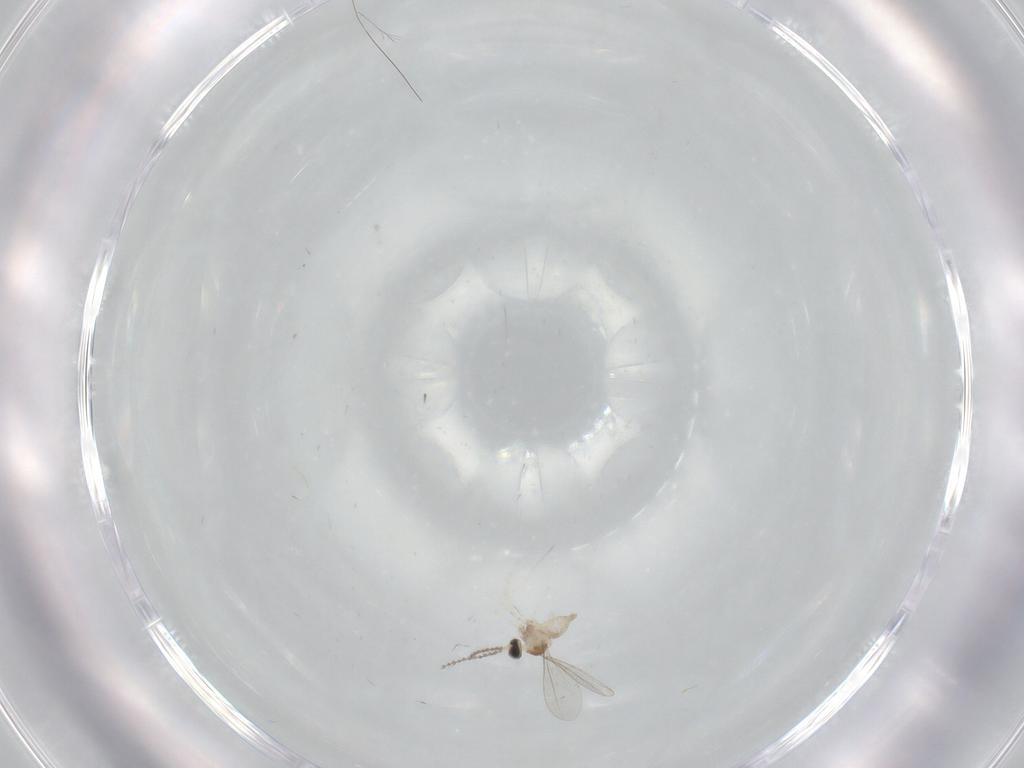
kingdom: Animalia
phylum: Arthropoda
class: Insecta
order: Diptera
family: Cecidomyiidae
